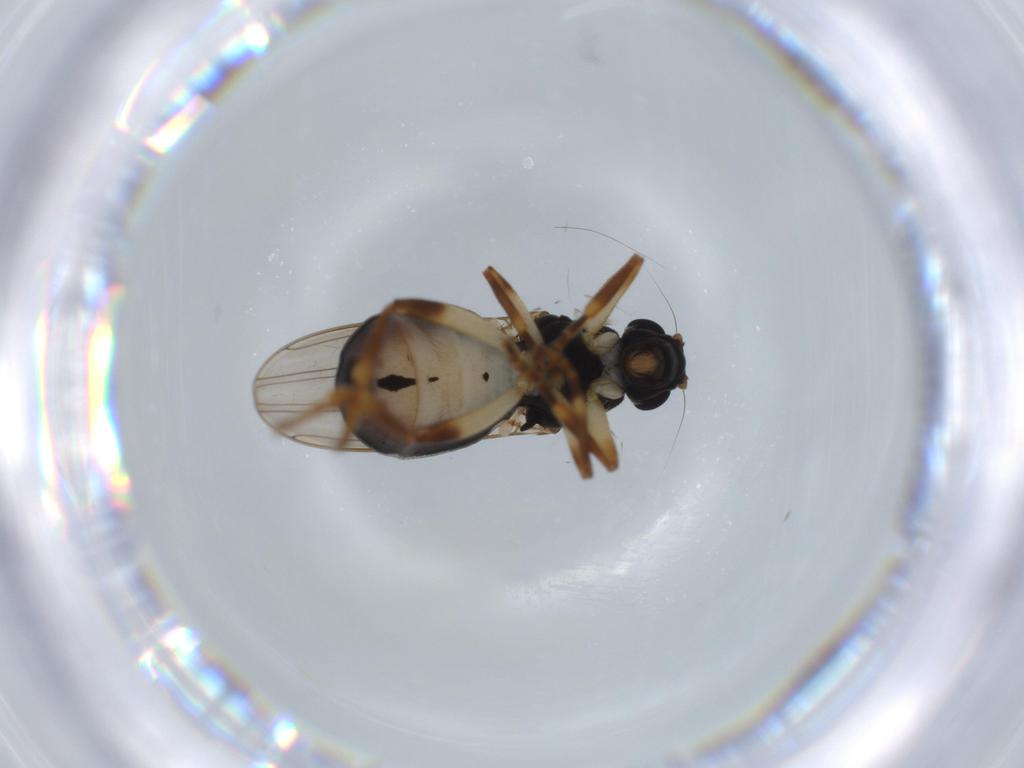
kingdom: Animalia
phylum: Arthropoda
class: Insecta
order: Diptera
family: Sphaeroceridae
